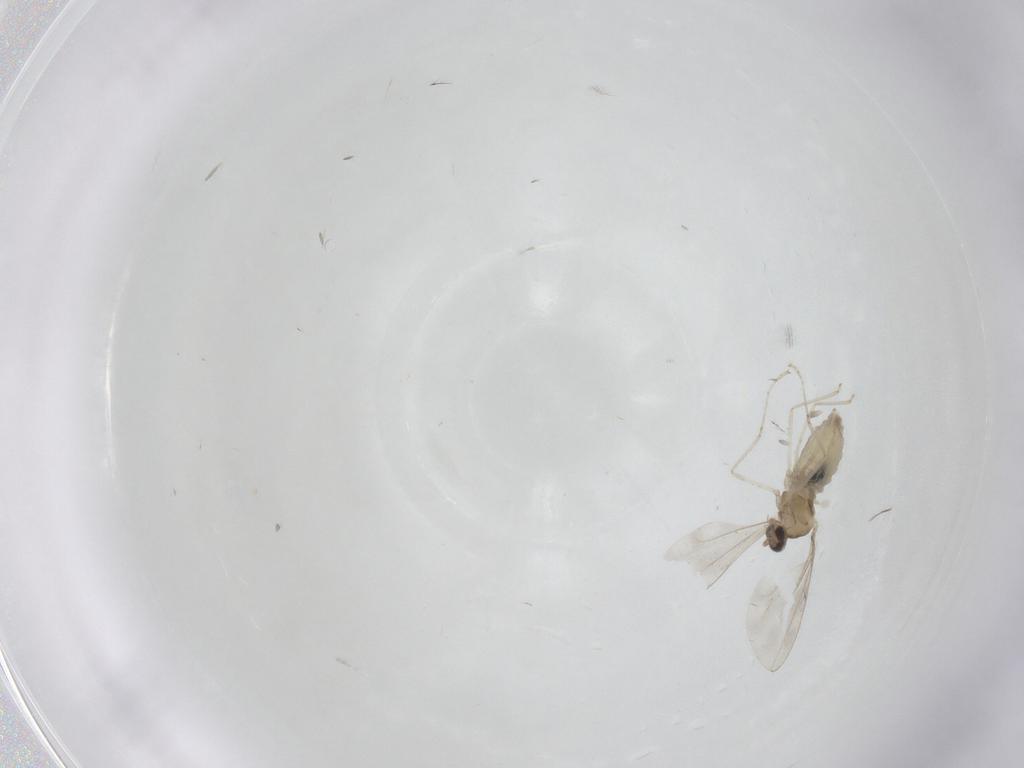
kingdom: Animalia
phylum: Arthropoda
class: Insecta
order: Diptera
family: Cecidomyiidae
